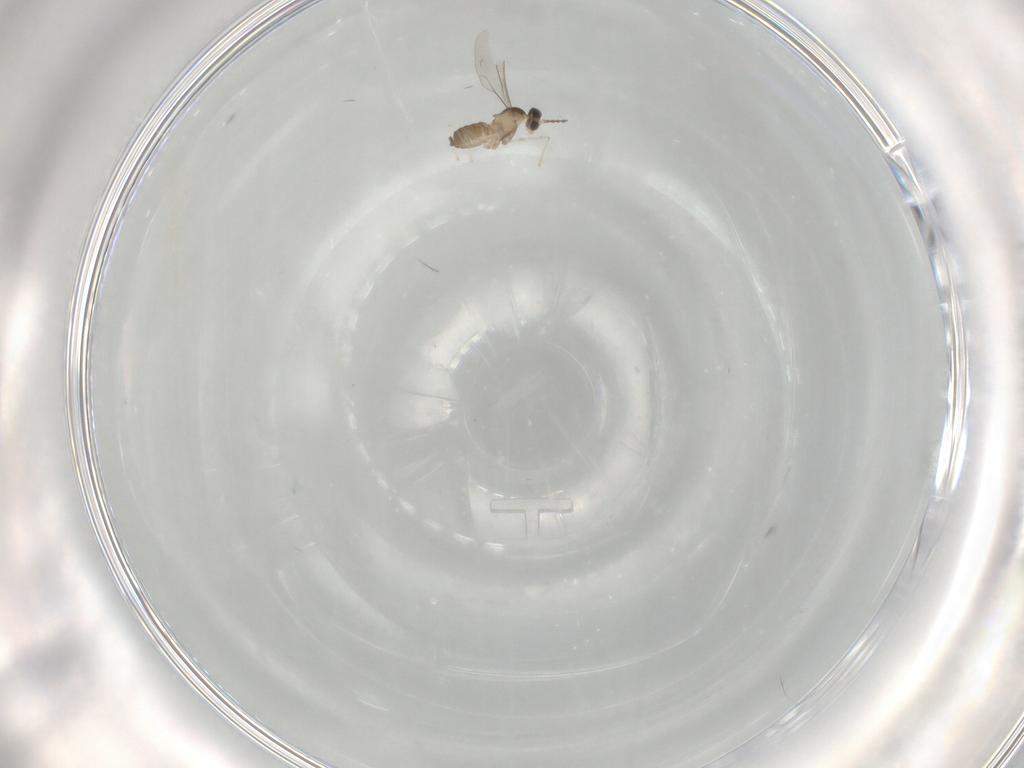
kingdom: Animalia
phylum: Arthropoda
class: Insecta
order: Diptera
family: Cecidomyiidae
